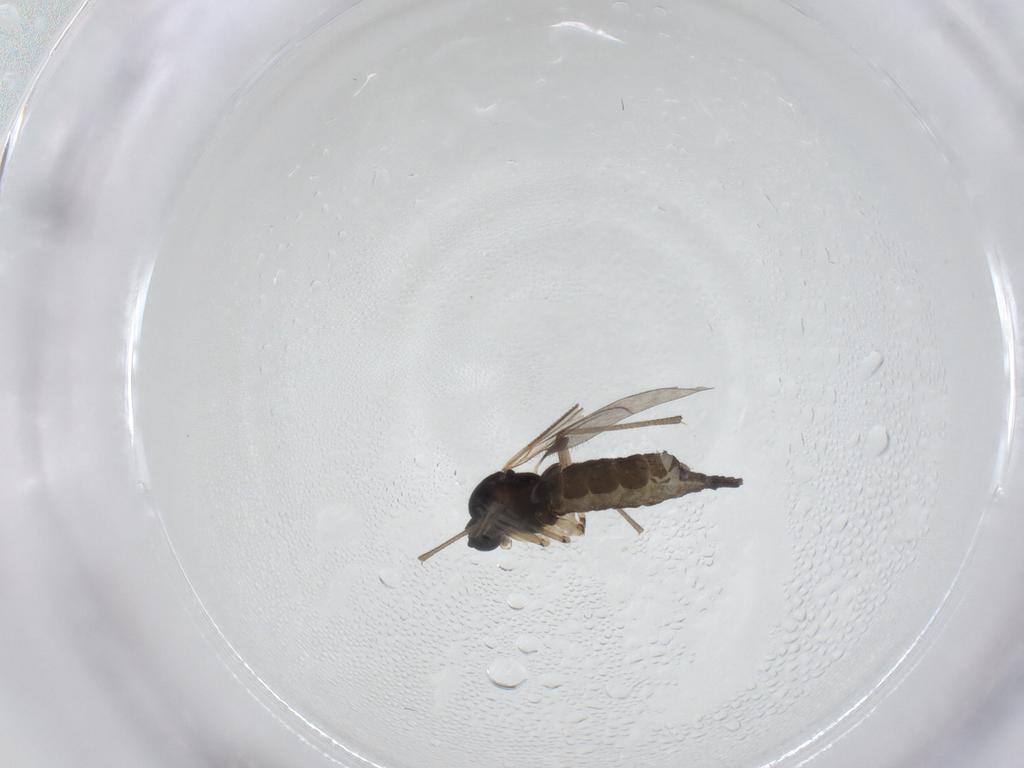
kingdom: Animalia
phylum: Arthropoda
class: Insecta
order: Diptera
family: Sciaridae
